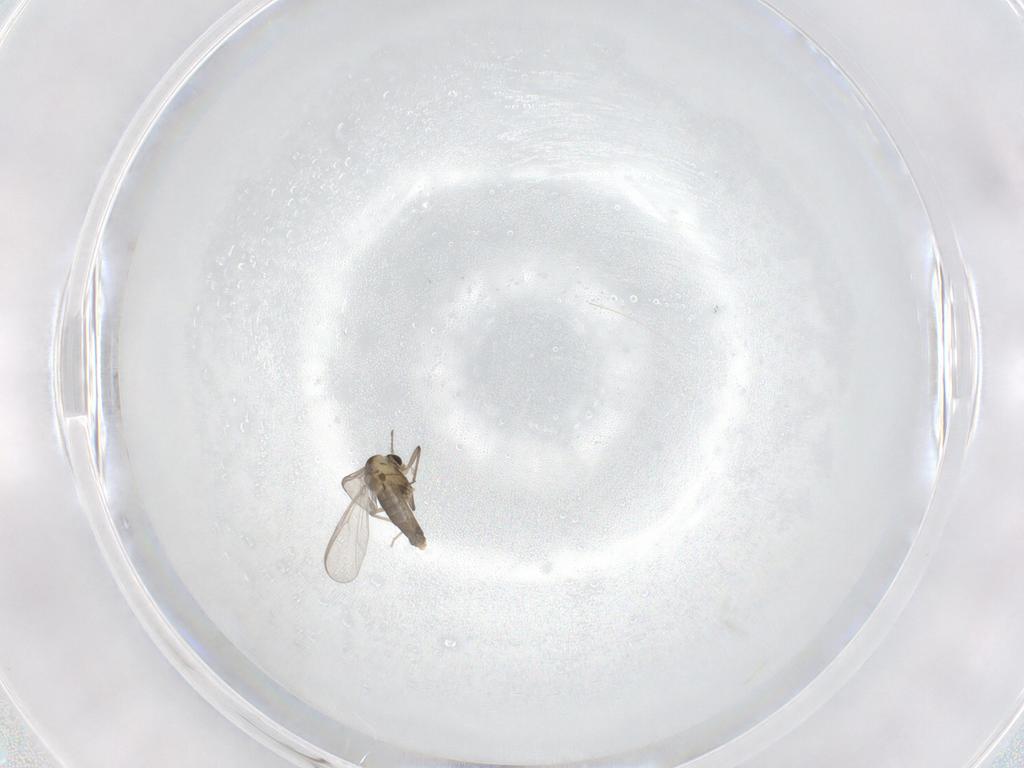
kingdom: Animalia
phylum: Arthropoda
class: Insecta
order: Diptera
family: Chironomidae
